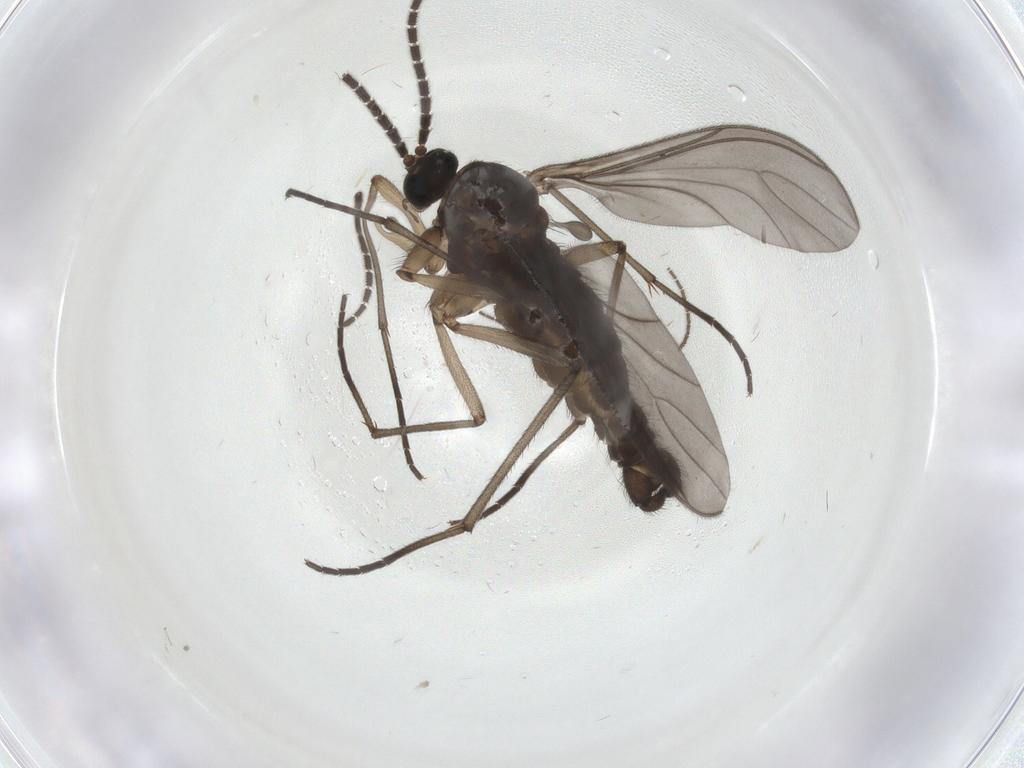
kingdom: Animalia
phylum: Arthropoda
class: Insecta
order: Diptera
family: Sciaridae
